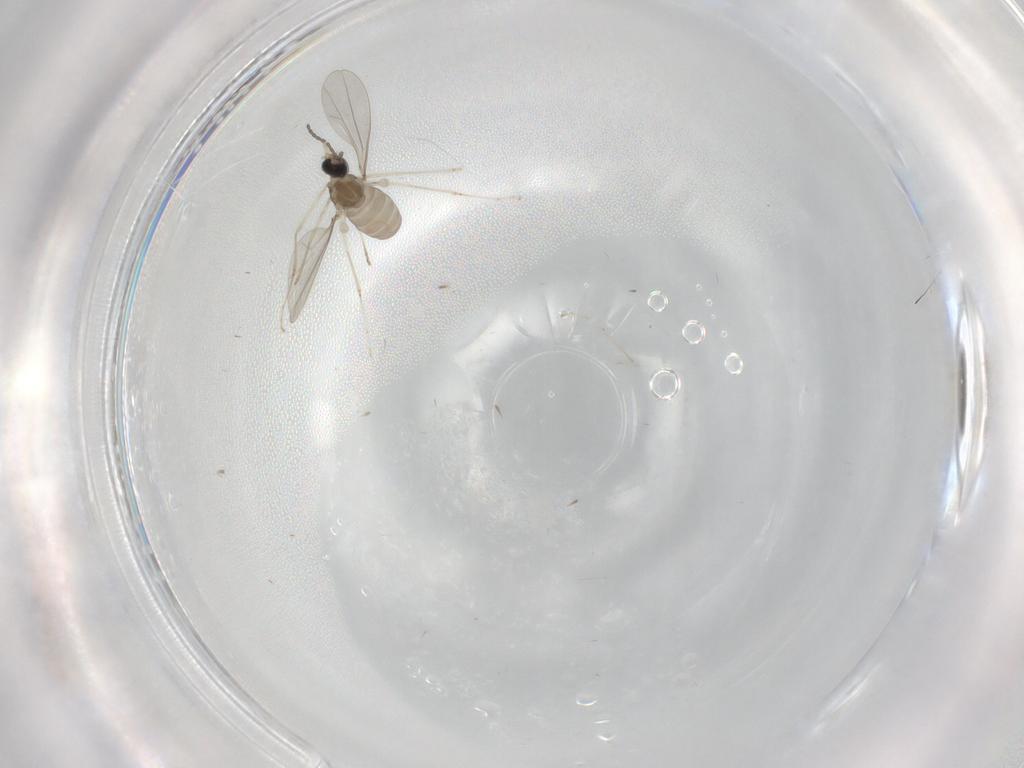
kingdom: Animalia
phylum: Arthropoda
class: Insecta
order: Diptera
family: Cecidomyiidae
